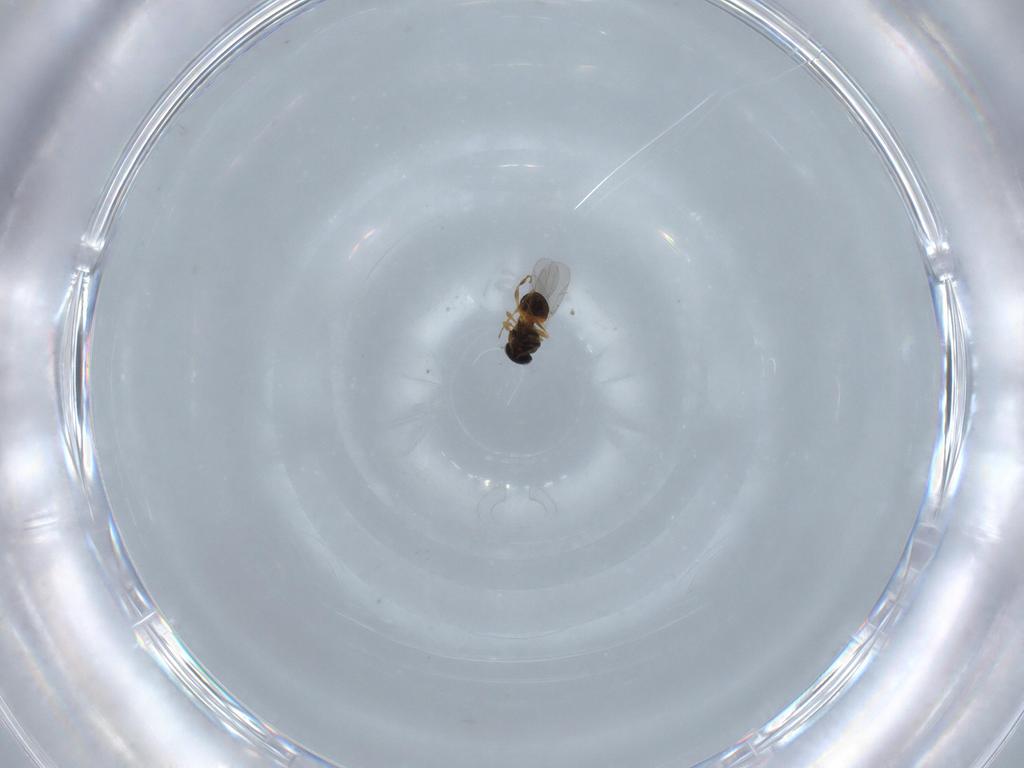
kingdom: Animalia
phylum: Arthropoda
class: Insecta
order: Hymenoptera
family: Platygastridae
